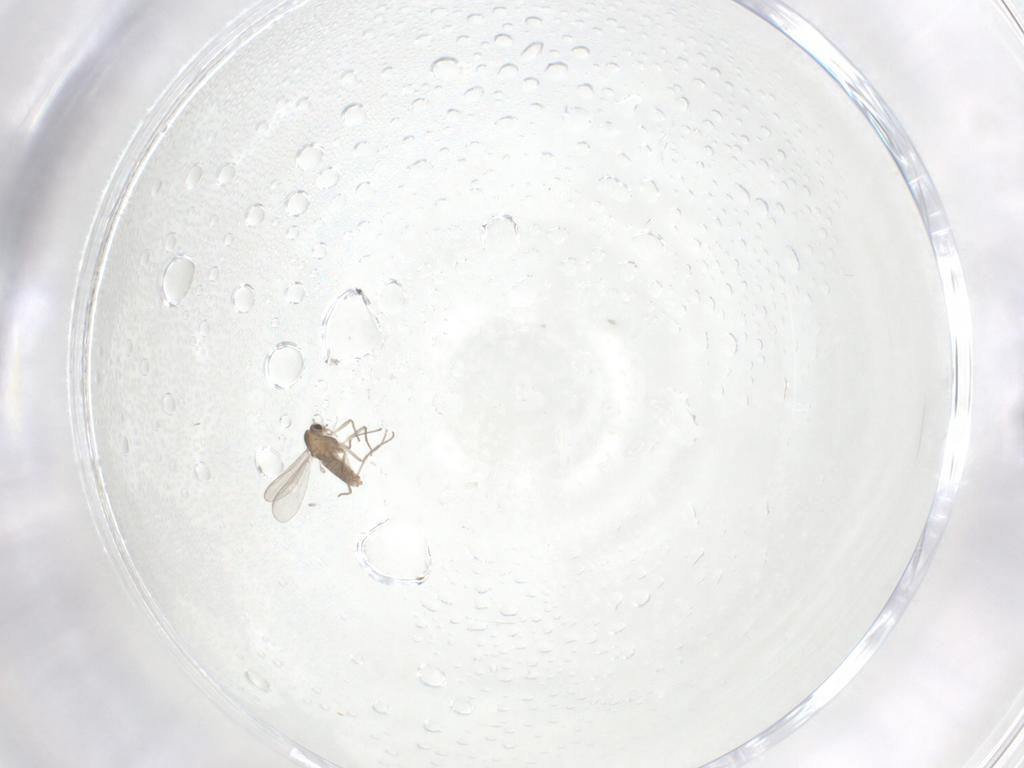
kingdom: Animalia
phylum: Arthropoda
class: Insecta
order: Diptera
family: Chironomidae
